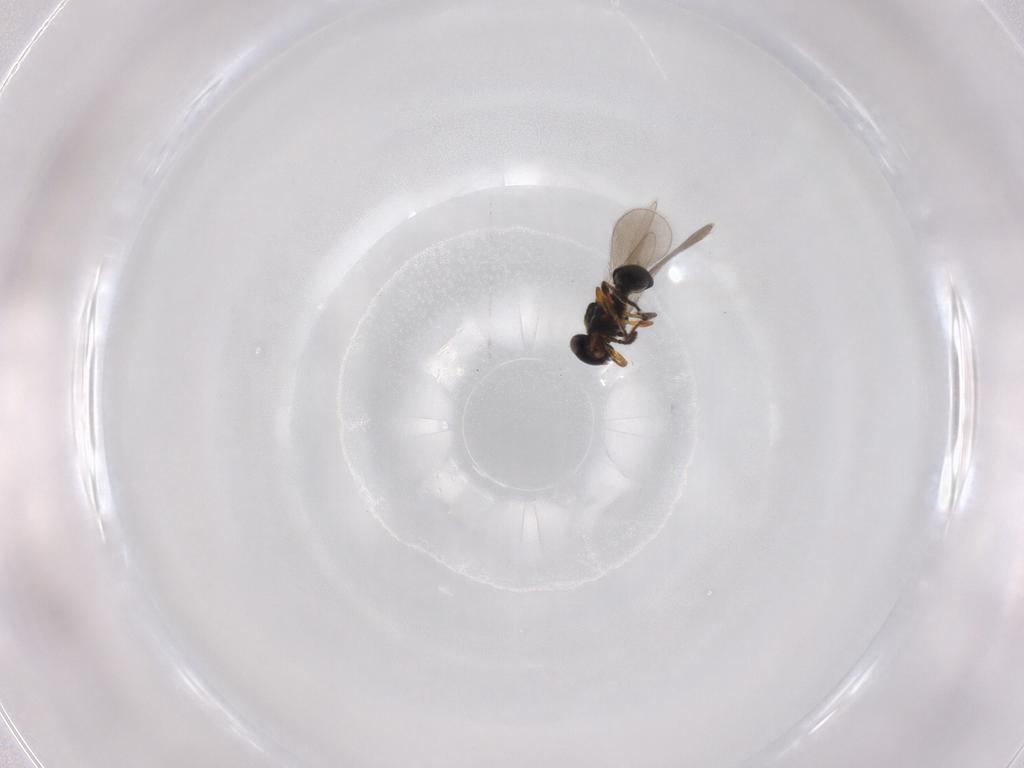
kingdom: Animalia
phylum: Arthropoda
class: Insecta
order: Hymenoptera
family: Platygastridae
